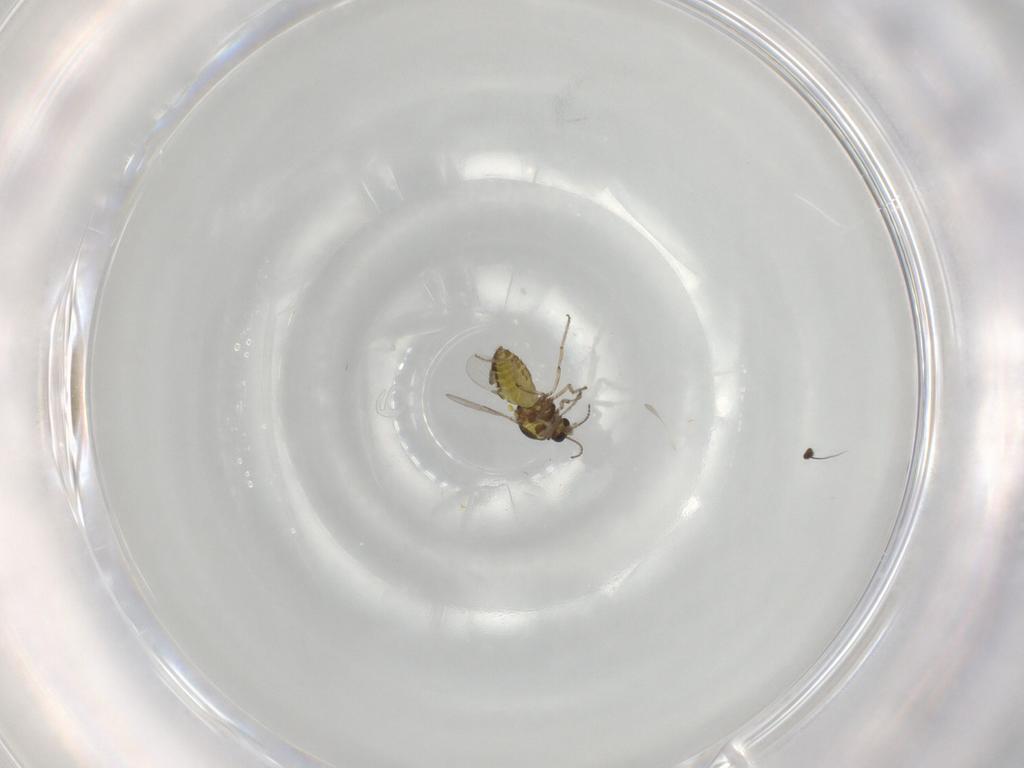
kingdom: Animalia
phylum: Arthropoda
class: Insecta
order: Diptera
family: Ceratopogonidae
